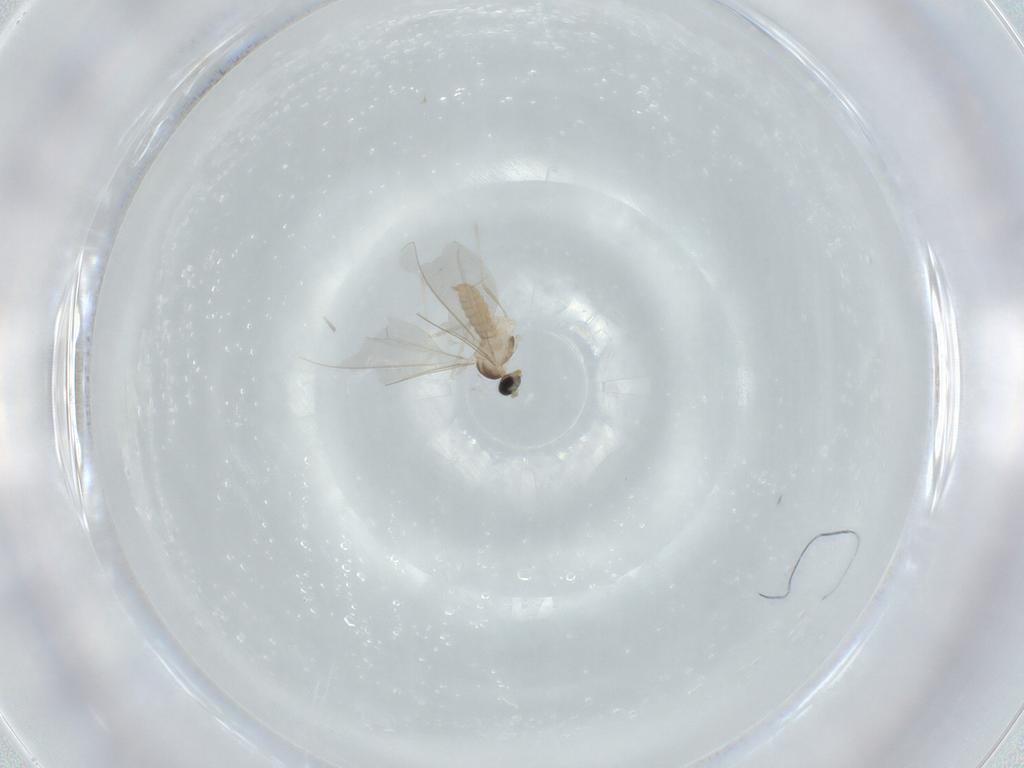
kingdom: Animalia
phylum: Arthropoda
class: Insecta
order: Diptera
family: Cecidomyiidae
